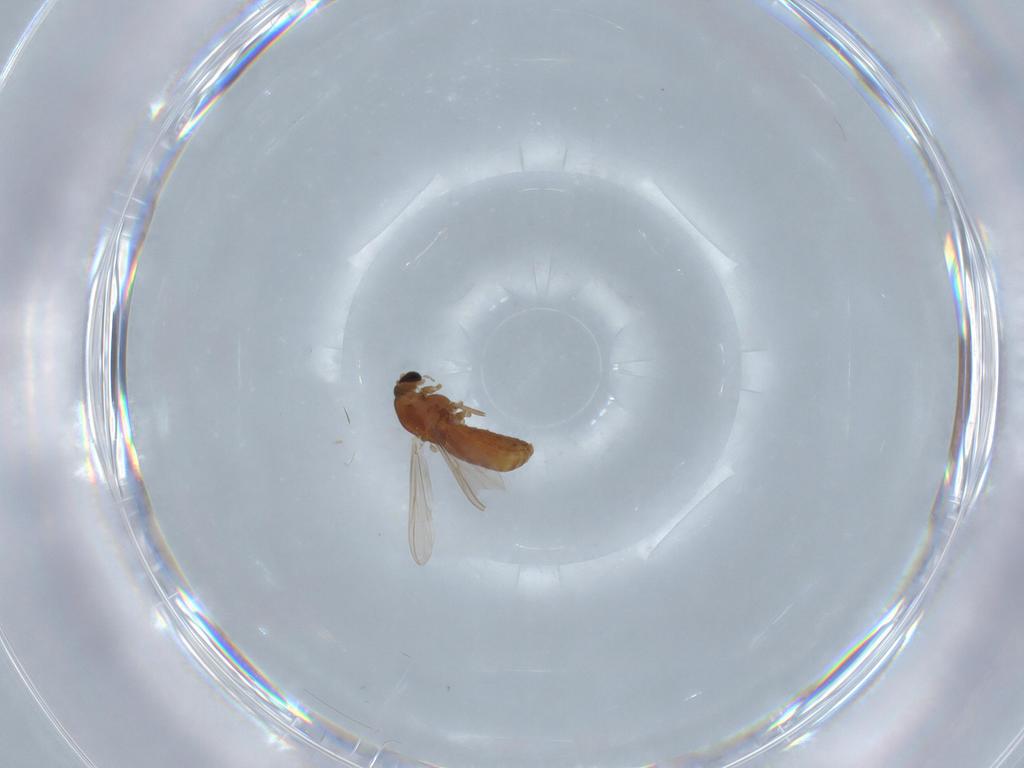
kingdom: Animalia
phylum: Arthropoda
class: Insecta
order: Diptera
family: Chironomidae
